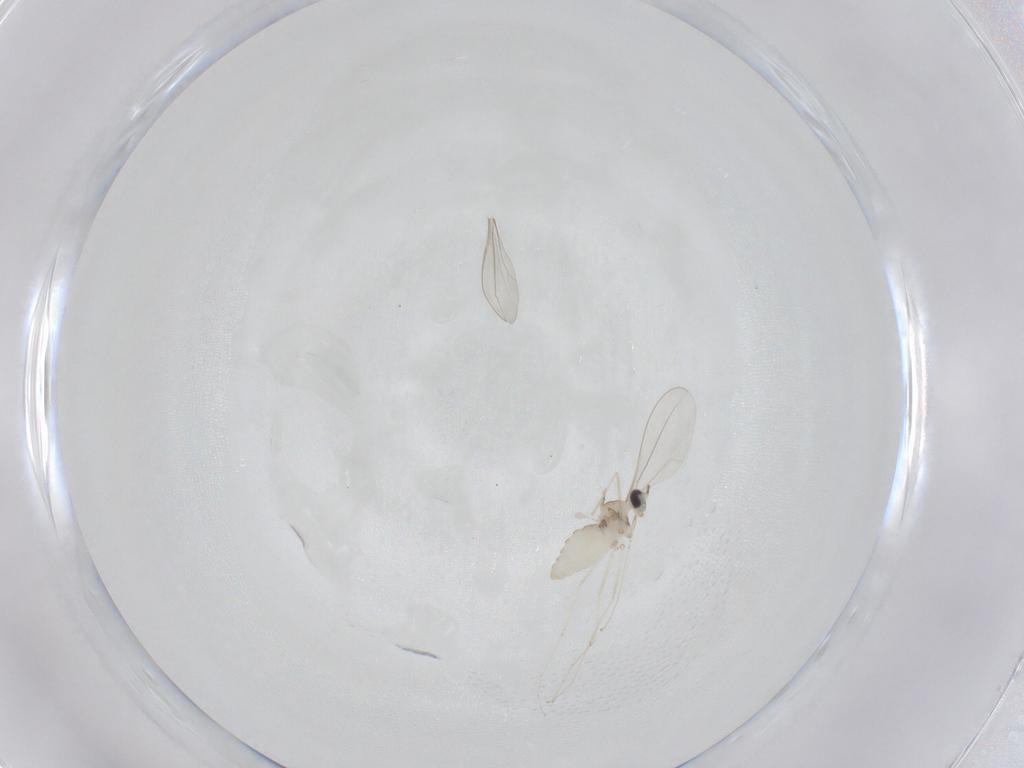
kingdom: Animalia
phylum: Arthropoda
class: Insecta
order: Diptera
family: Cecidomyiidae
